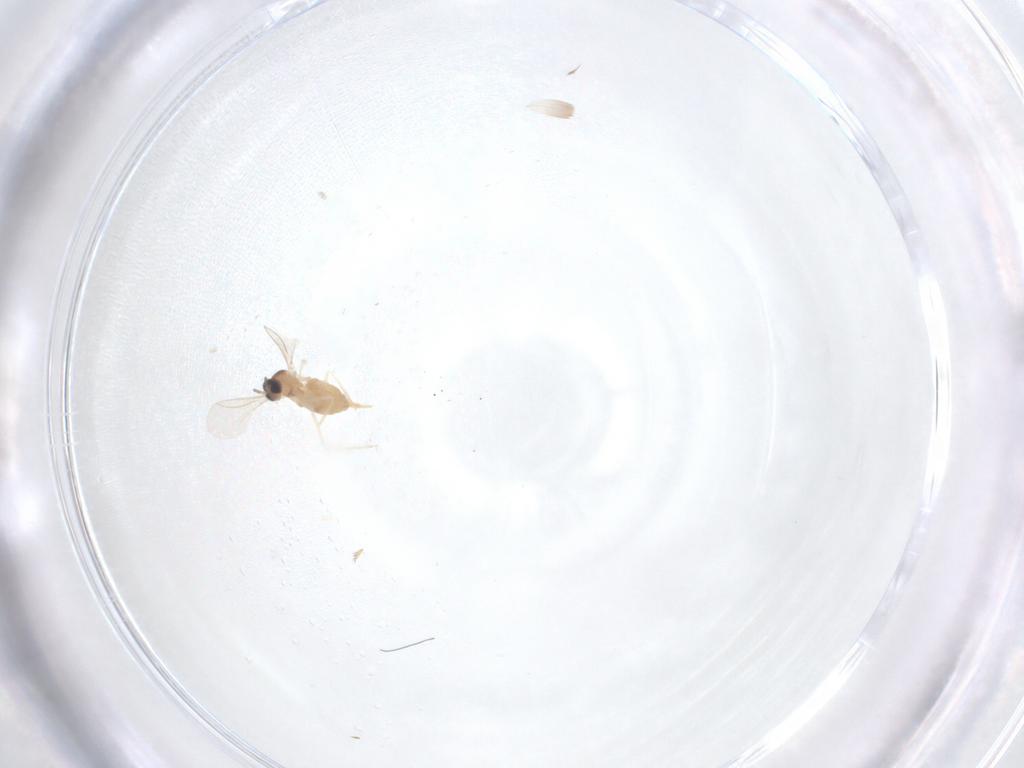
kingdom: Animalia
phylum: Arthropoda
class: Insecta
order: Diptera
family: Cecidomyiidae
